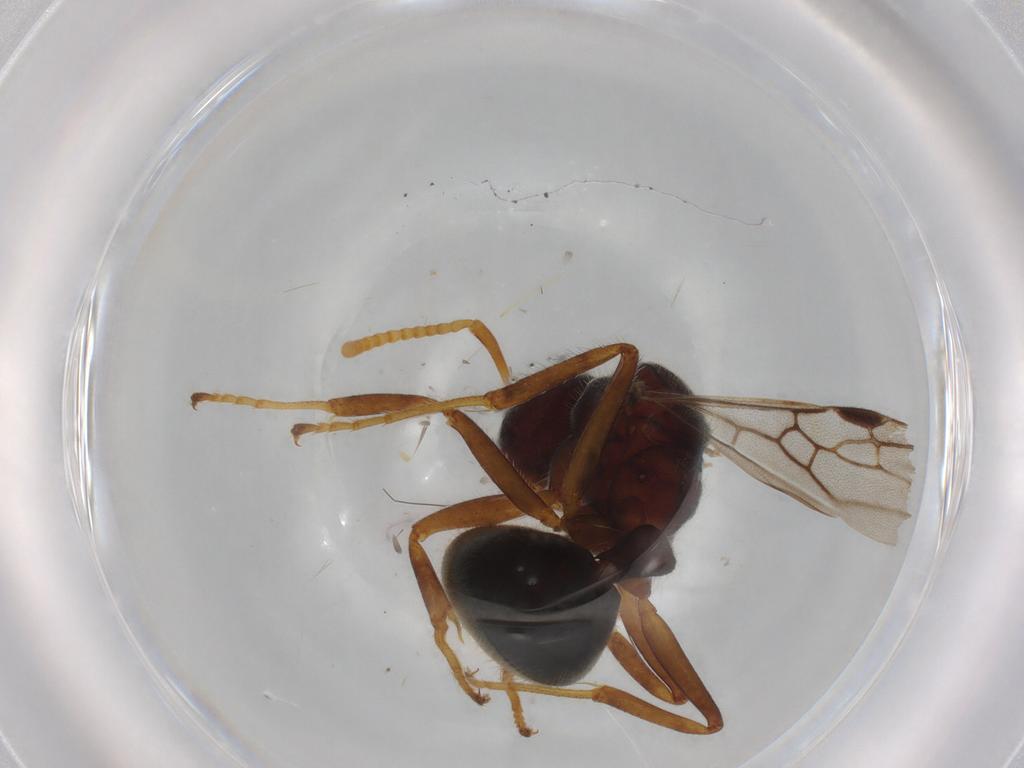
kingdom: Animalia
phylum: Arthropoda
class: Insecta
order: Hymenoptera
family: Formicidae
